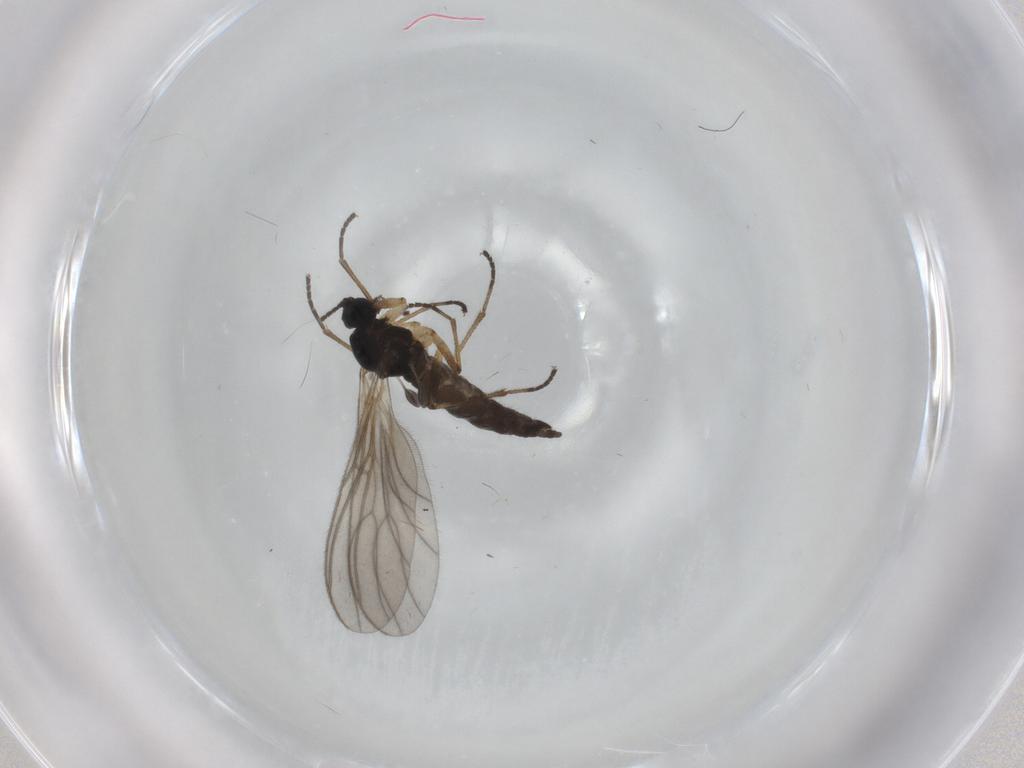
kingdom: Animalia
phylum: Arthropoda
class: Insecta
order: Diptera
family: Sciaridae
